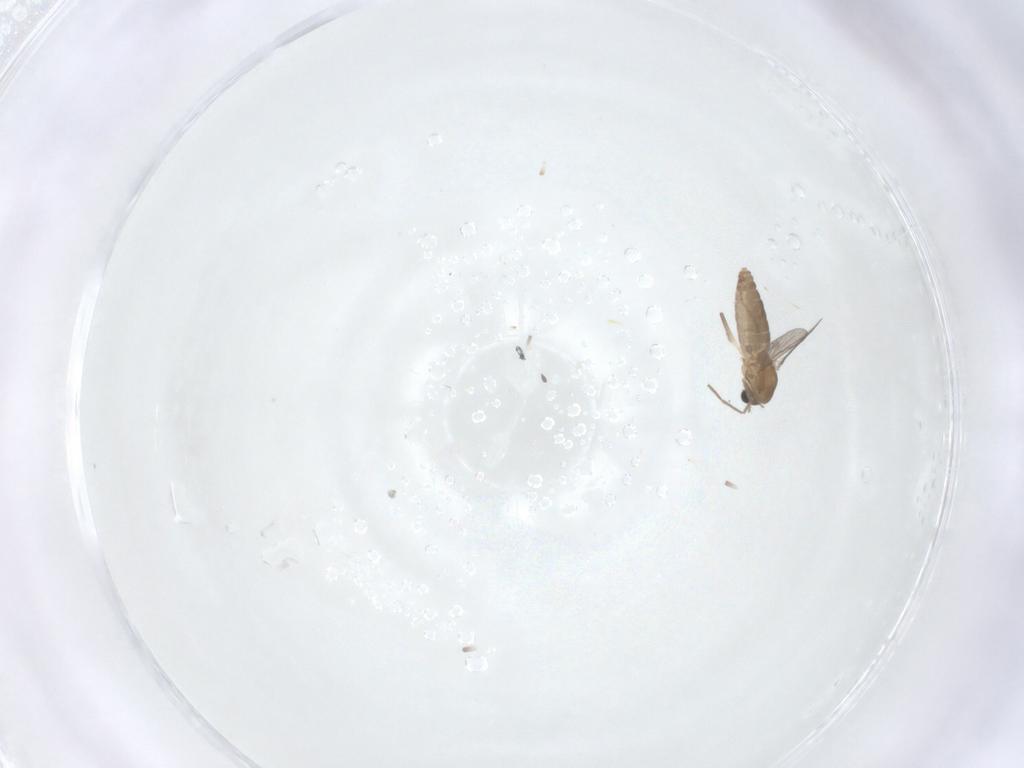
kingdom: Animalia
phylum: Arthropoda
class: Insecta
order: Diptera
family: Chironomidae
